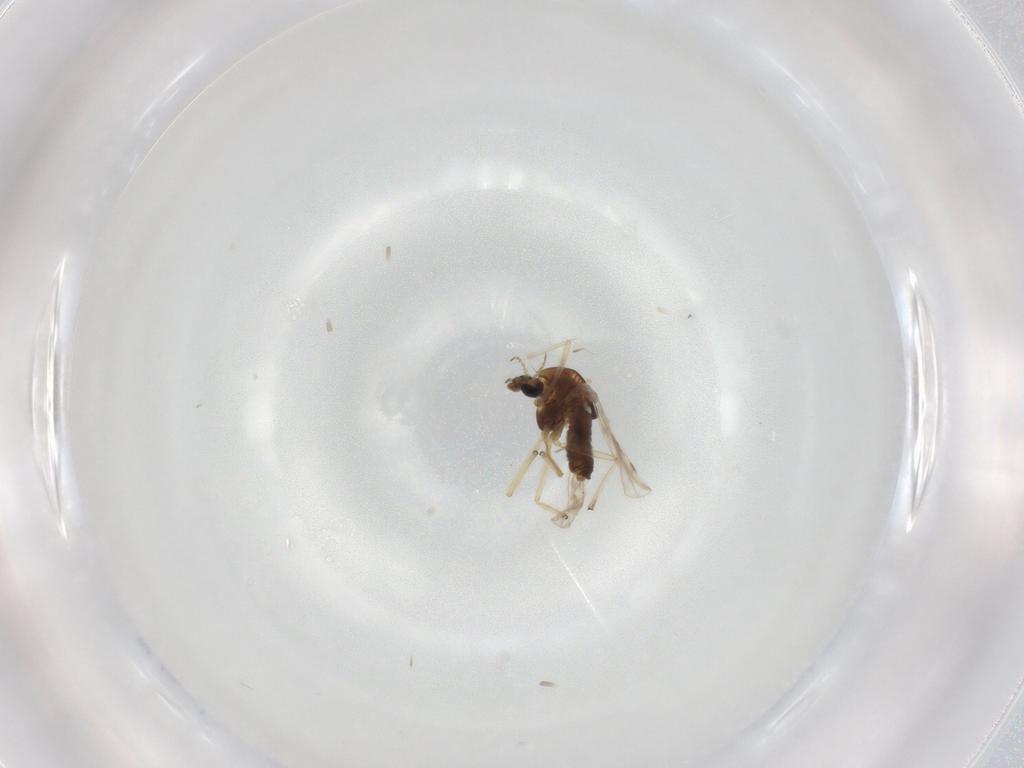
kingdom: Animalia
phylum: Arthropoda
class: Insecta
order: Diptera
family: Chironomidae
